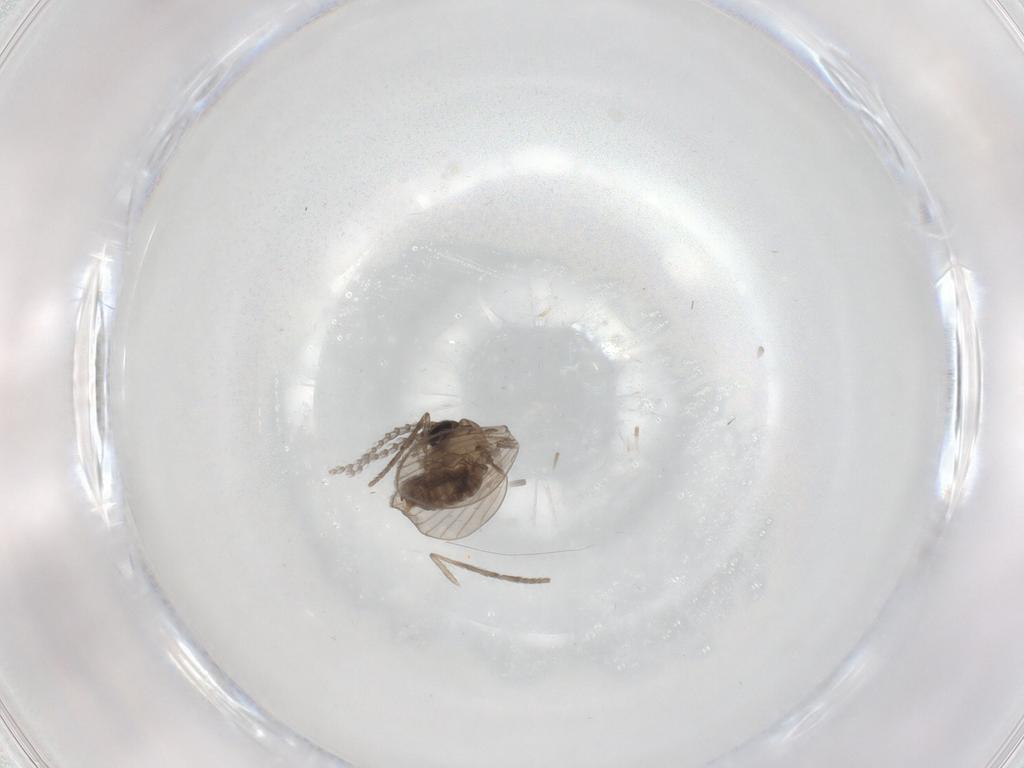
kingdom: Animalia
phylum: Arthropoda
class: Insecta
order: Diptera
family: Psychodidae
